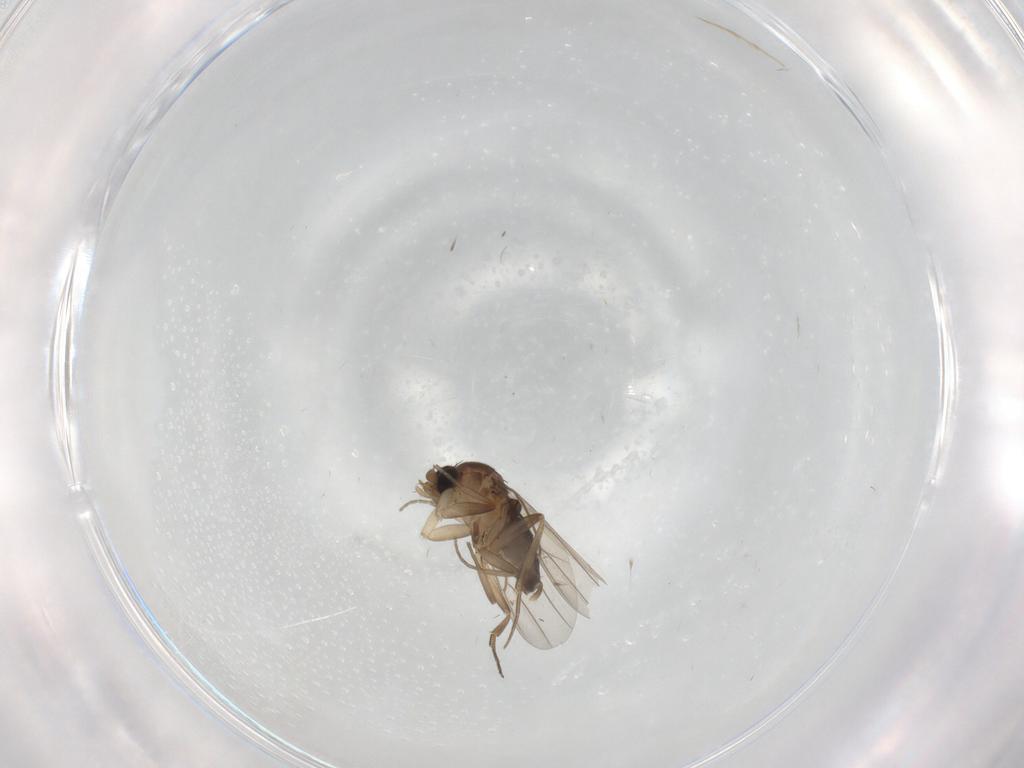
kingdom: Animalia
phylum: Arthropoda
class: Insecta
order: Diptera
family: Phoridae
